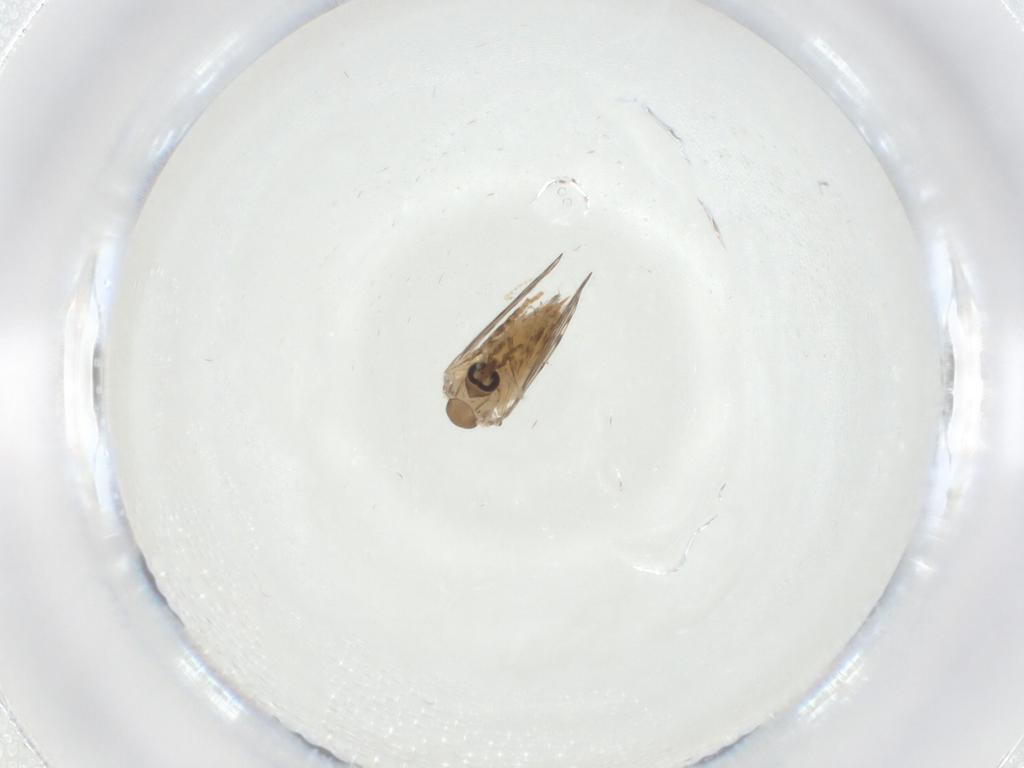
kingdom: Animalia
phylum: Arthropoda
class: Insecta
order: Diptera
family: Cecidomyiidae
